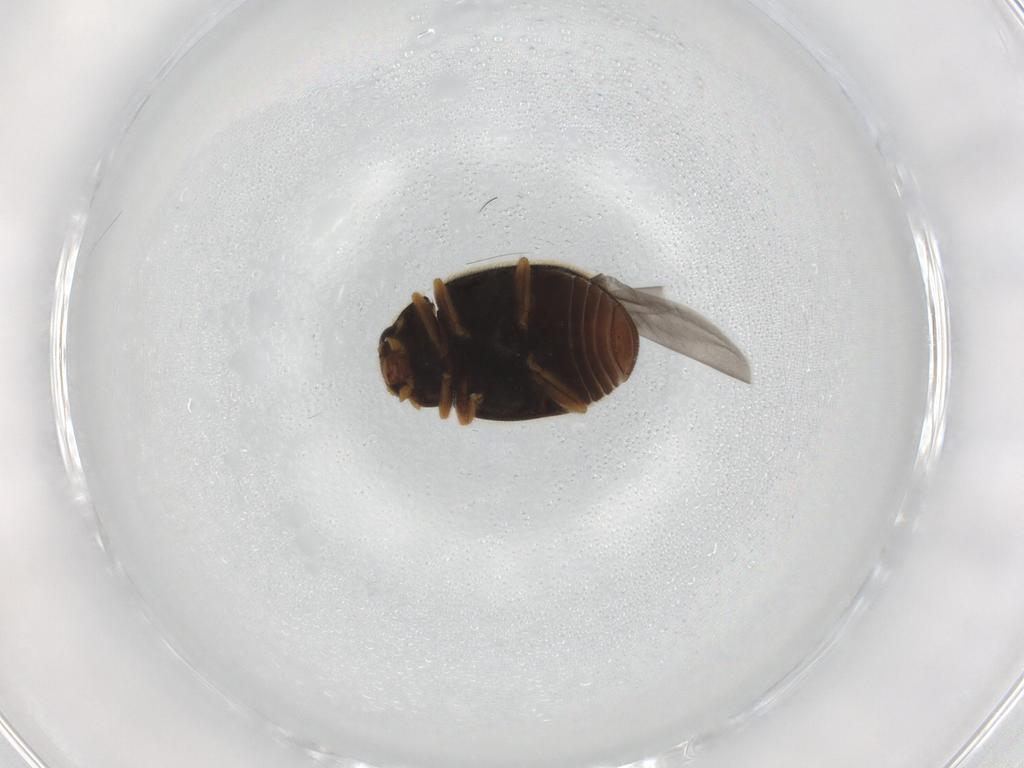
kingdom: Animalia
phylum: Arthropoda
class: Insecta
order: Coleoptera
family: Coccinellidae
